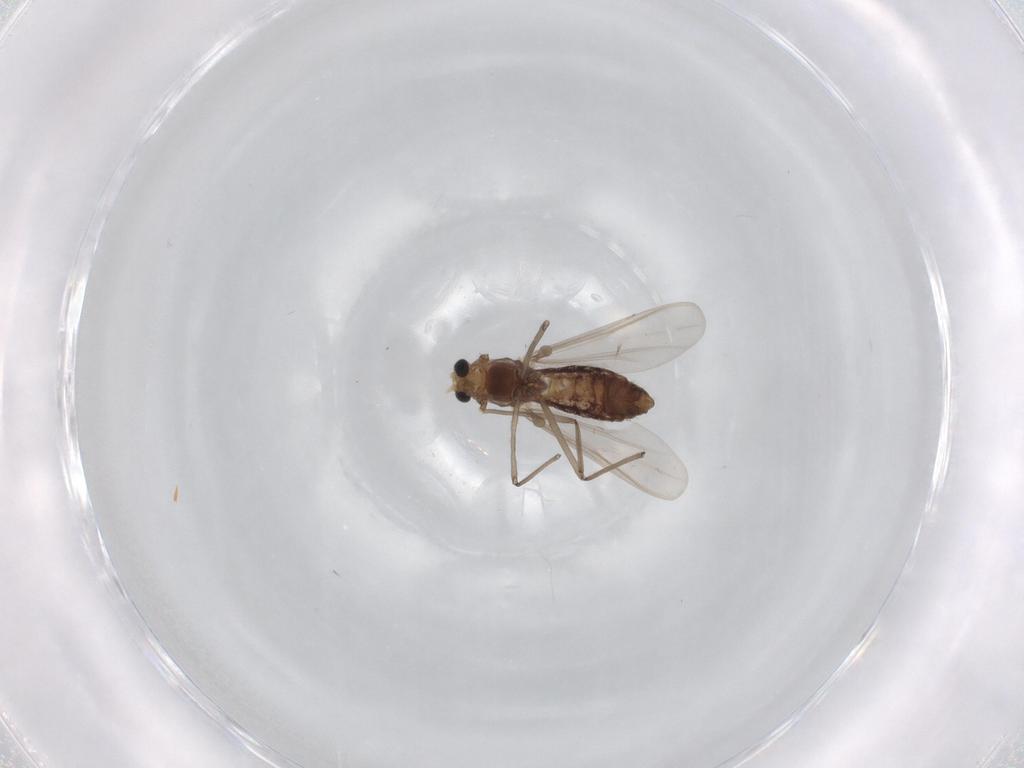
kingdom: Animalia
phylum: Arthropoda
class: Insecta
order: Diptera
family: Chironomidae
